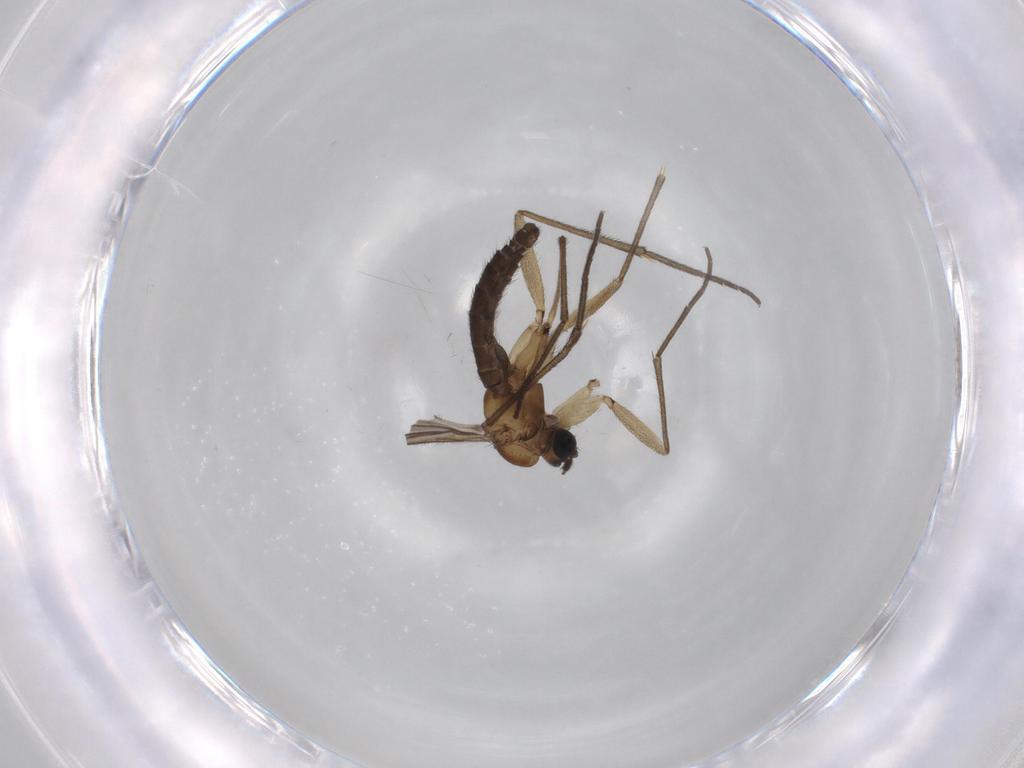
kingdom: Animalia
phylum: Arthropoda
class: Insecta
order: Diptera
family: Sciaridae
